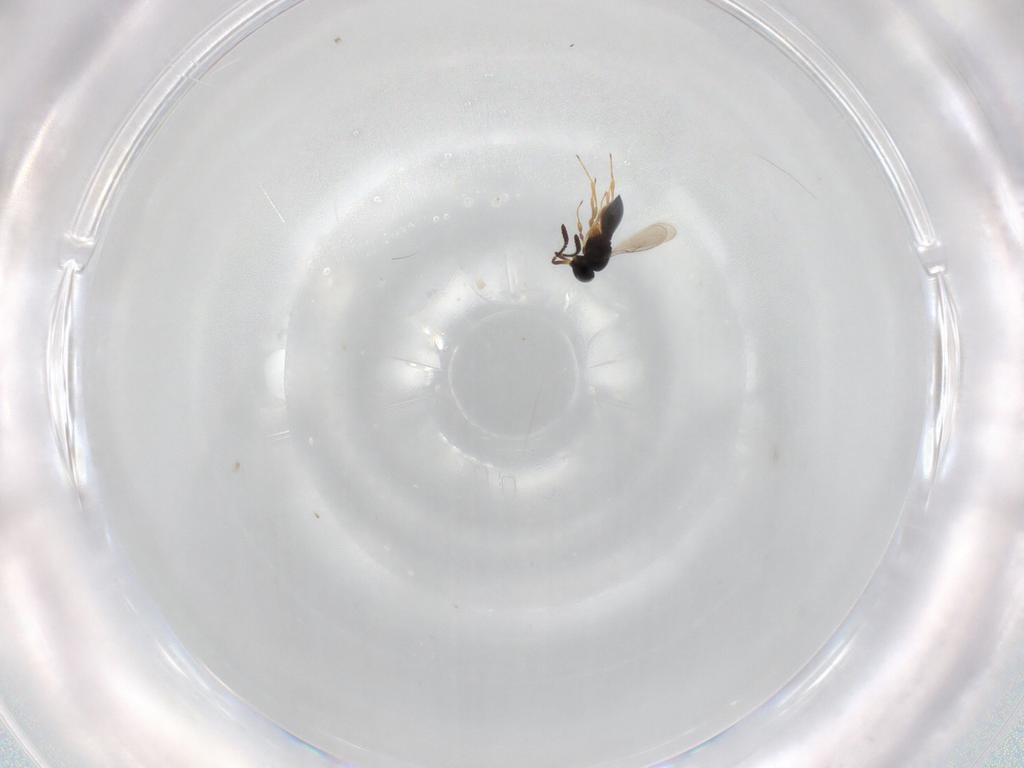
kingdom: Animalia
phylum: Arthropoda
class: Insecta
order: Hymenoptera
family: Scelionidae
